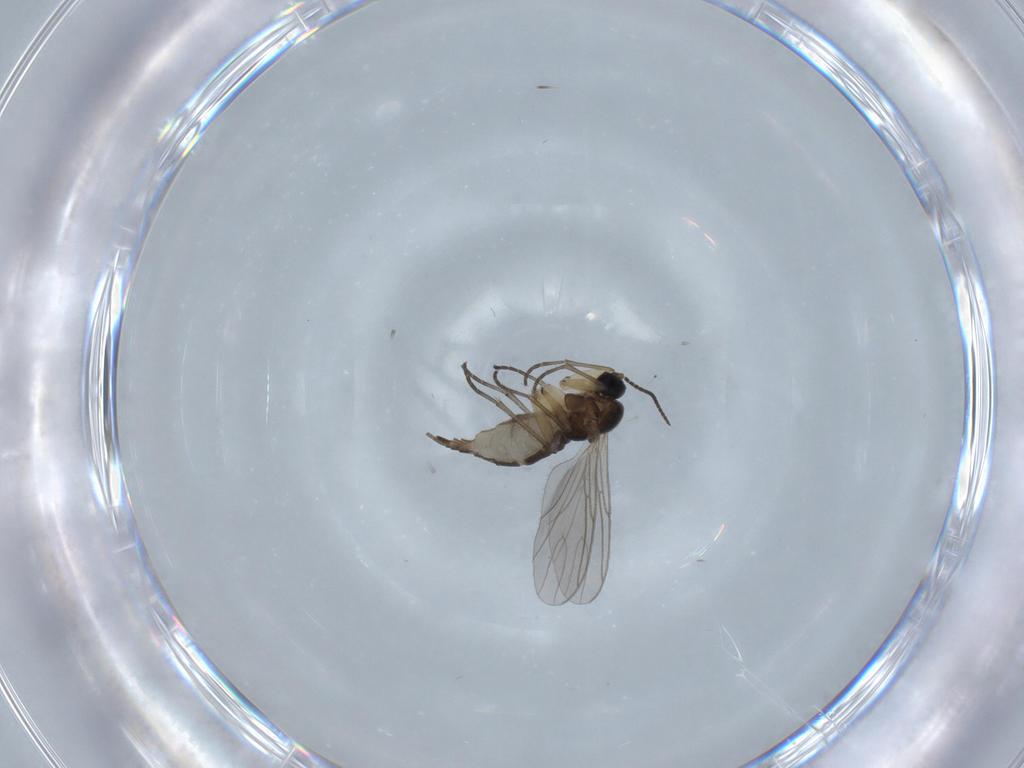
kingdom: Animalia
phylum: Arthropoda
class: Insecta
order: Diptera
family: Sciaridae
